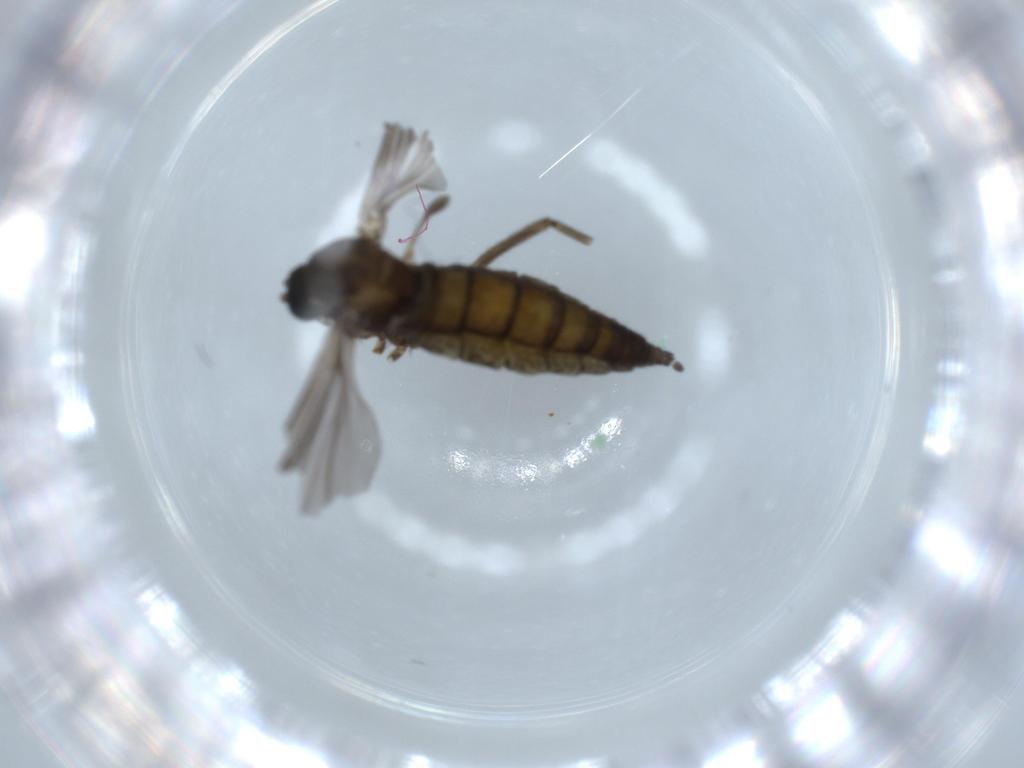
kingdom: Animalia
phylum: Arthropoda
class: Insecta
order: Diptera
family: Sciaridae
